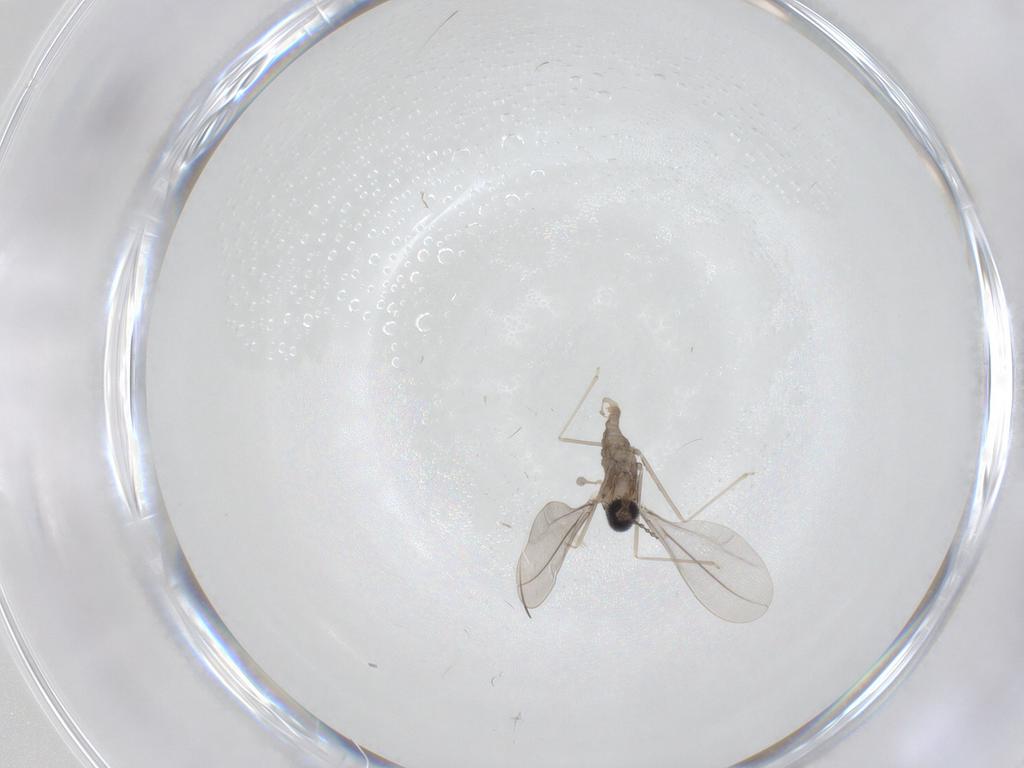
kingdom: Animalia
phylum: Arthropoda
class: Insecta
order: Diptera
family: Cecidomyiidae
